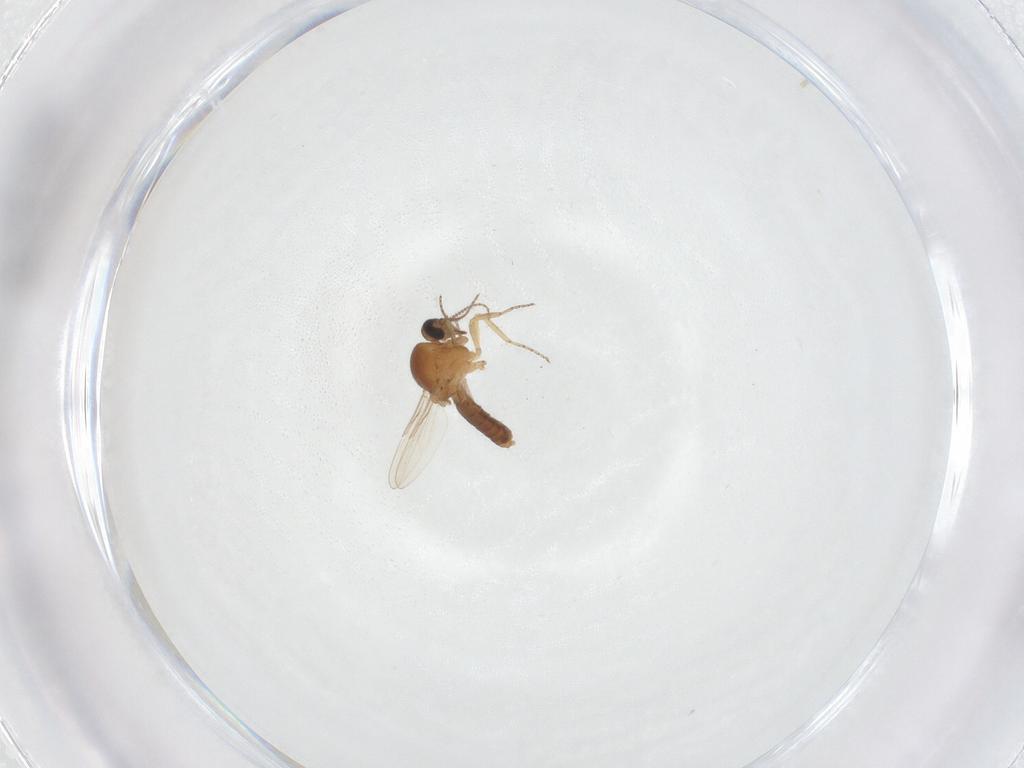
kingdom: Animalia
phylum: Arthropoda
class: Insecta
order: Diptera
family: Ceratopogonidae
